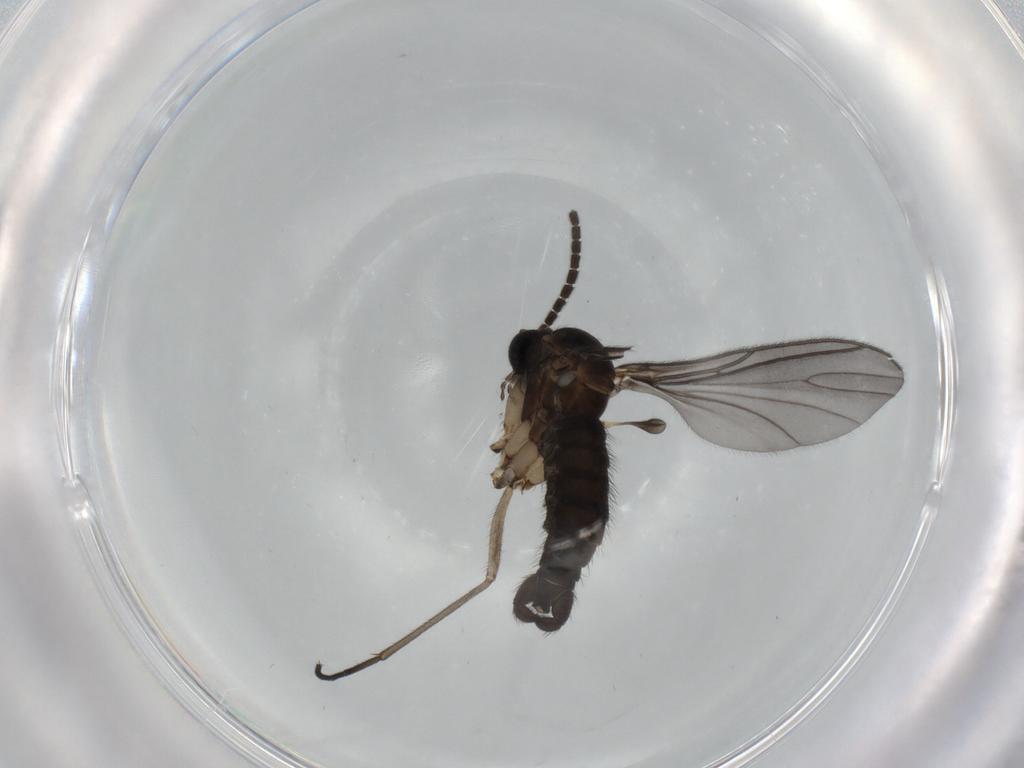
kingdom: Animalia
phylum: Arthropoda
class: Insecta
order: Diptera
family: Sciaridae
